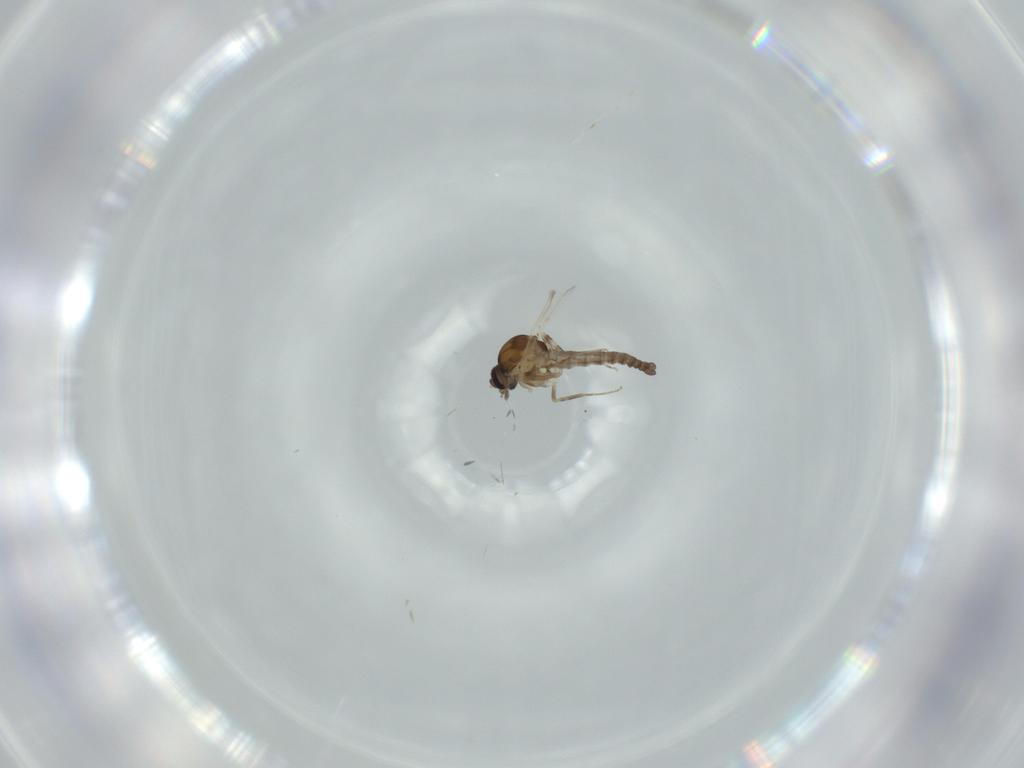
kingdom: Animalia
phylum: Arthropoda
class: Insecta
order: Diptera
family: Ceratopogonidae
